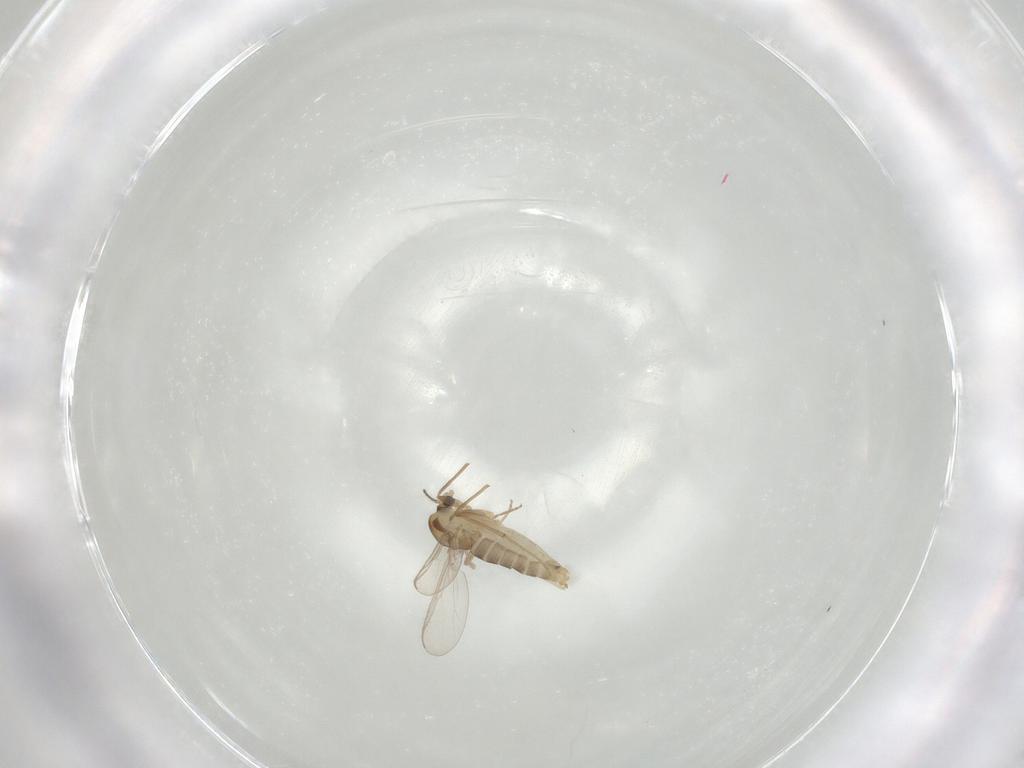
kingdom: Animalia
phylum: Arthropoda
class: Insecta
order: Diptera
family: Chironomidae
